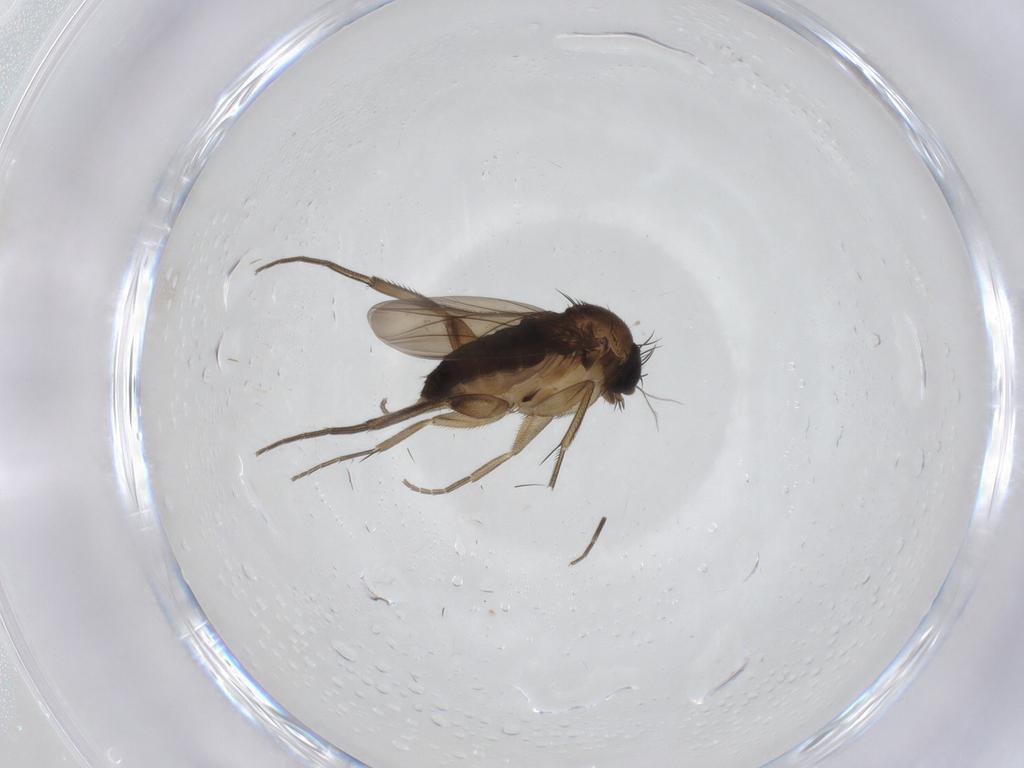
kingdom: Animalia
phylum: Arthropoda
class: Insecta
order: Diptera
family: Phoridae
